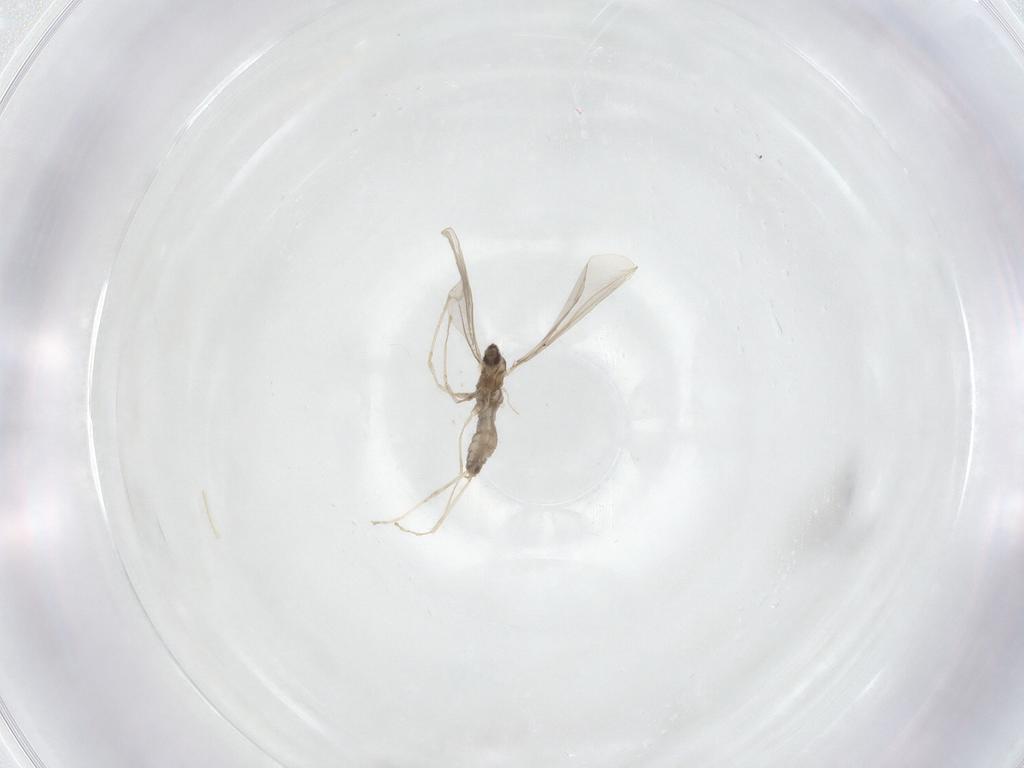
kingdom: Animalia
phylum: Arthropoda
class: Insecta
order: Diptera
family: Cecidomyiidae
